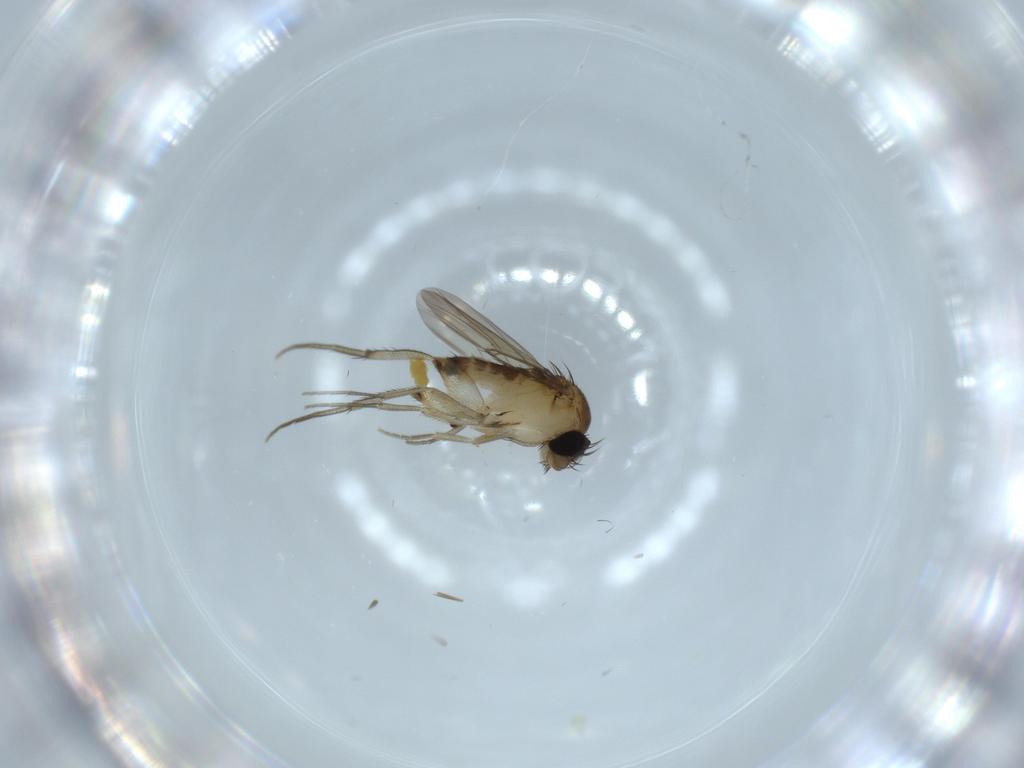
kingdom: Animalia
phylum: Arthropoda
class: Insecta
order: Diptera
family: Phoridae
